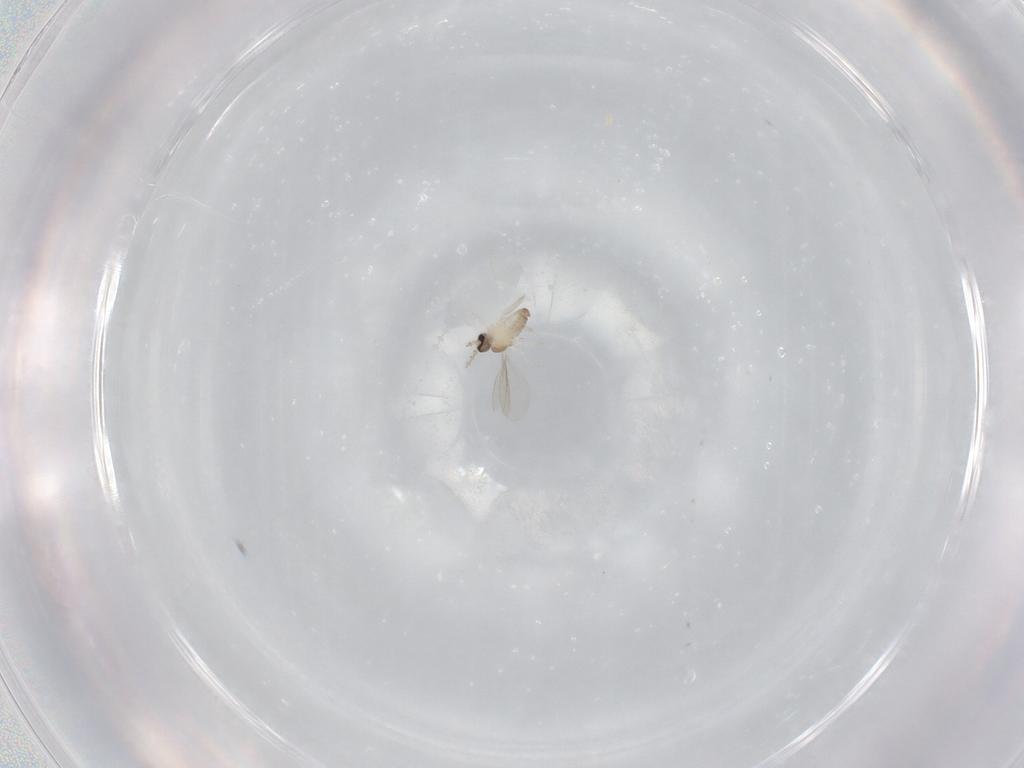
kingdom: Animalia
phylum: Arthropoda
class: Insecta
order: Diptera
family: Cecidomyiidae
